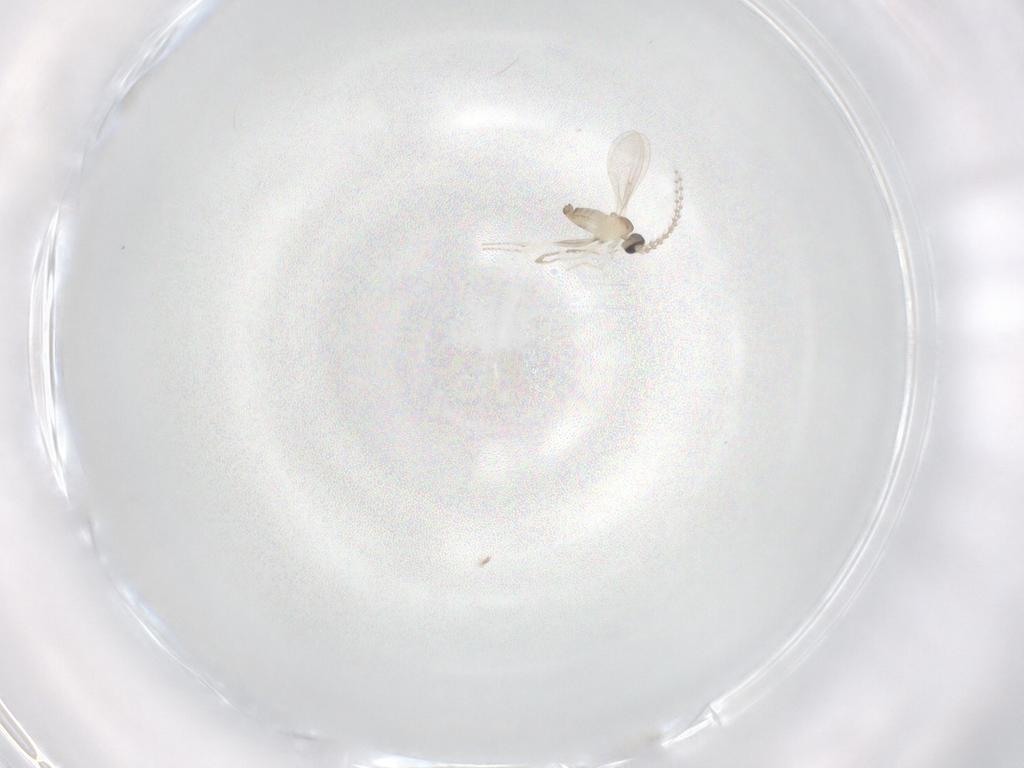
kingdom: Animalia
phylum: Arthropoda
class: Insecta
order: Diptera
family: Cecidomyiidae
